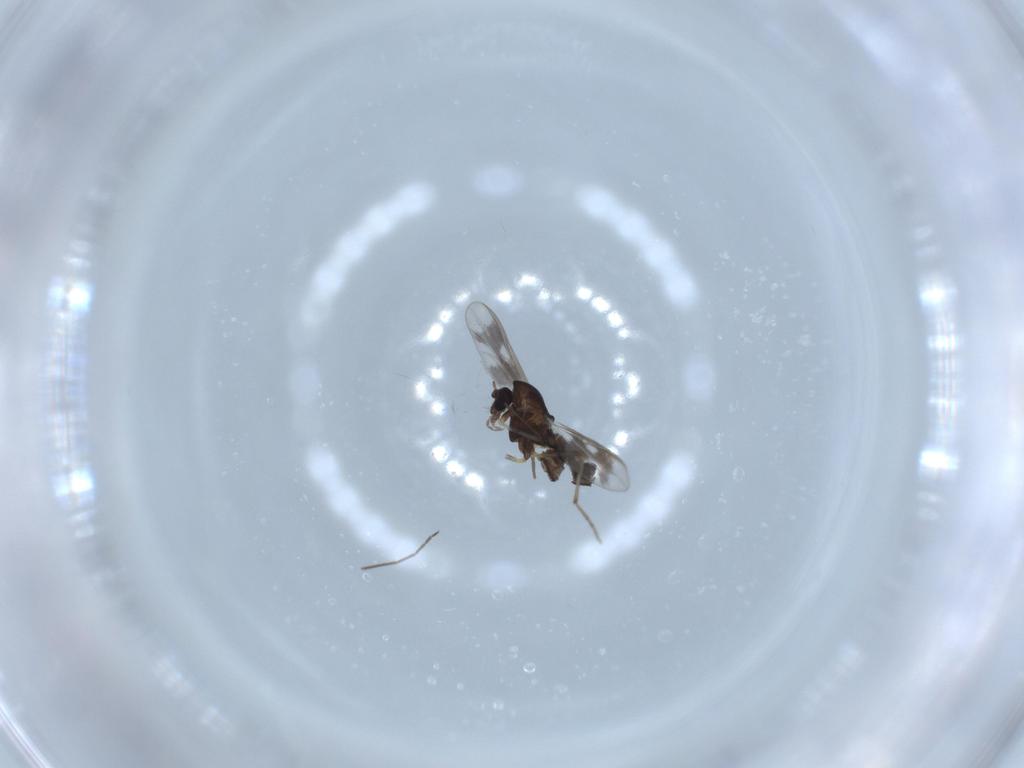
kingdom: Animalia
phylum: Arthropoda
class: Insecta
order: Diptera
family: Chironomidae
